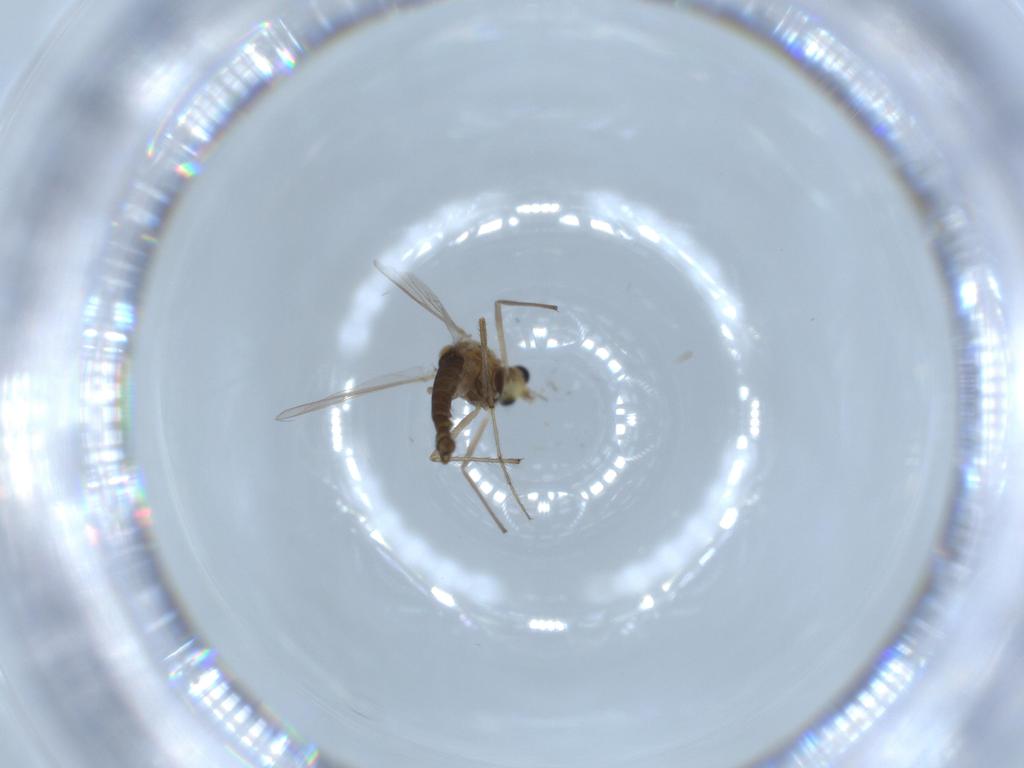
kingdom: Animalia
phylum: Arthropoda
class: Insecta
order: Diptera
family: Chironomidae
